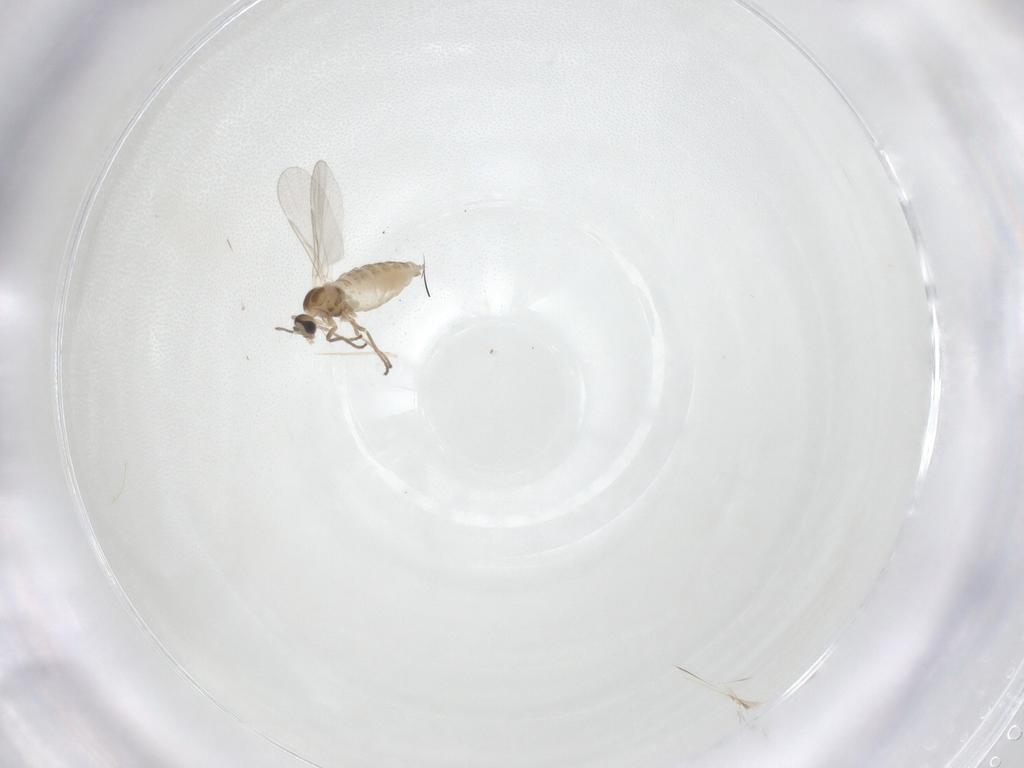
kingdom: Animalia
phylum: Arthropoda
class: Insecta
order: Diptera
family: Cecidomyiidae
